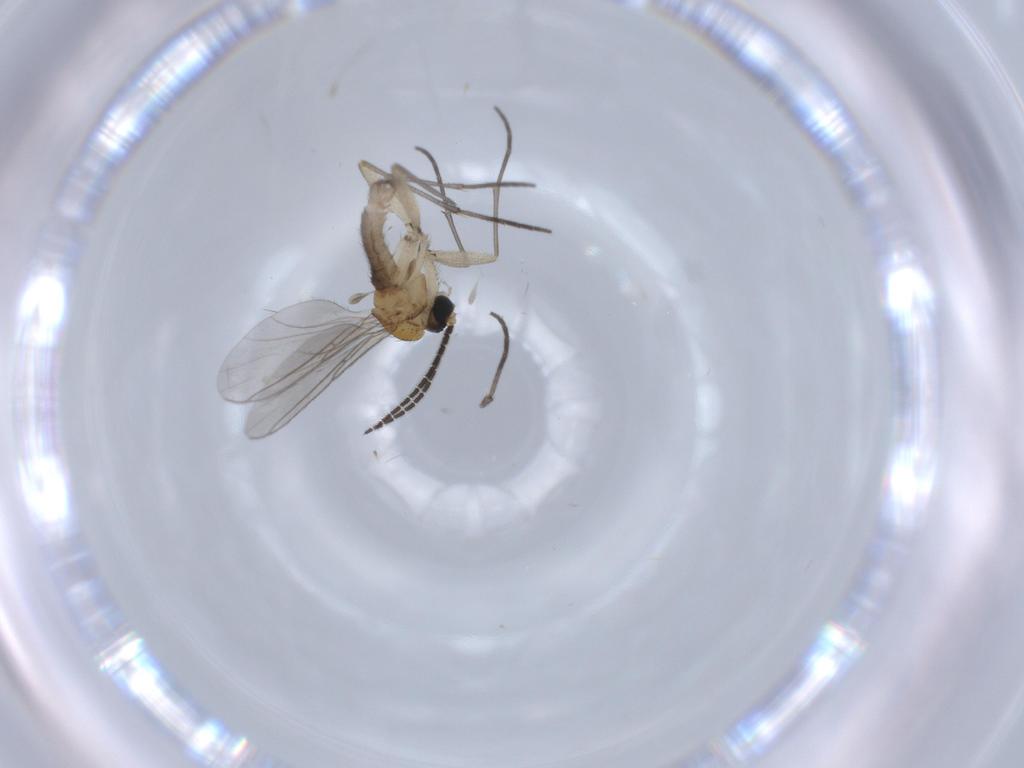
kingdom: Animalia
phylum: Arthropoda
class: Insecta
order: Diptera
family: Sciaridae
